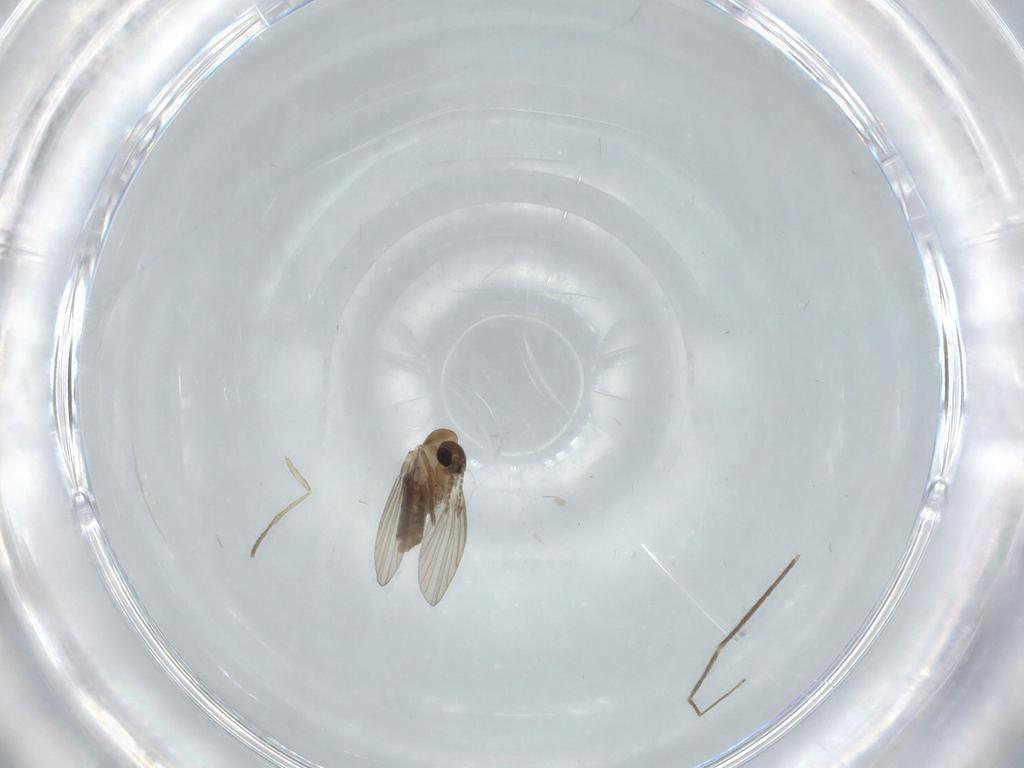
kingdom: Animalia
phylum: Arthropoda
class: Insecta
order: Diptera
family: Chironomidae
